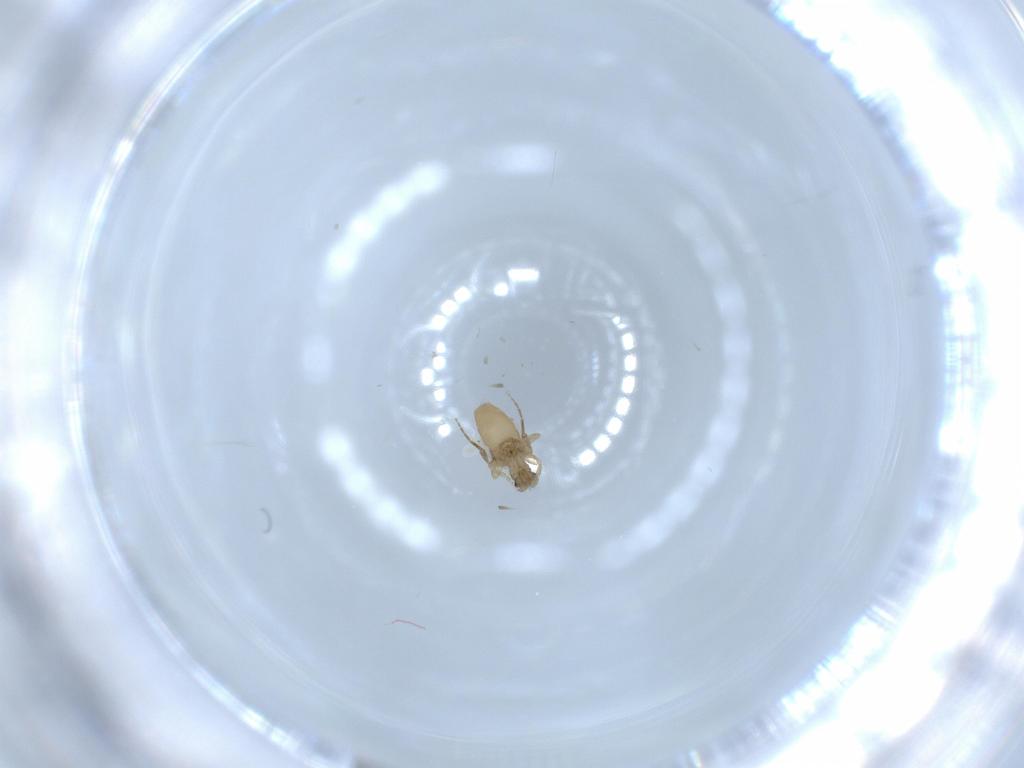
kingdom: Animalia
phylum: Arthropoda
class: Insecta
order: Diptera
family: Phoridae
